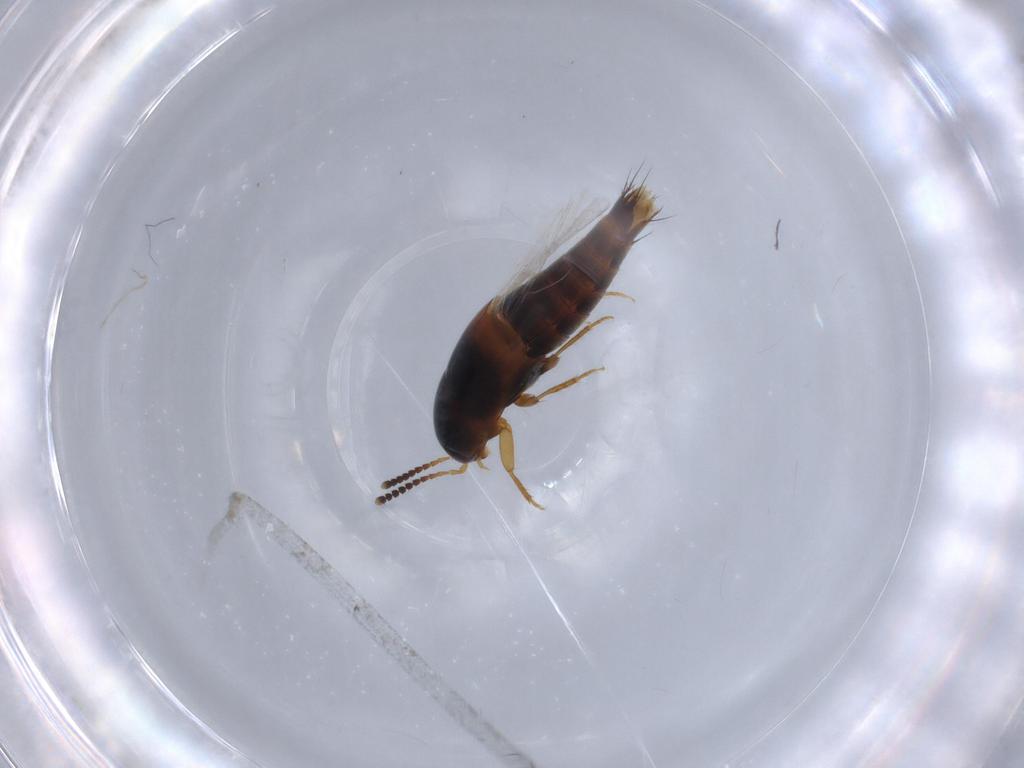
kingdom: Animalia
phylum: Arthropoda
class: Insecta
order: Coleoptera
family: Staphylinidae
